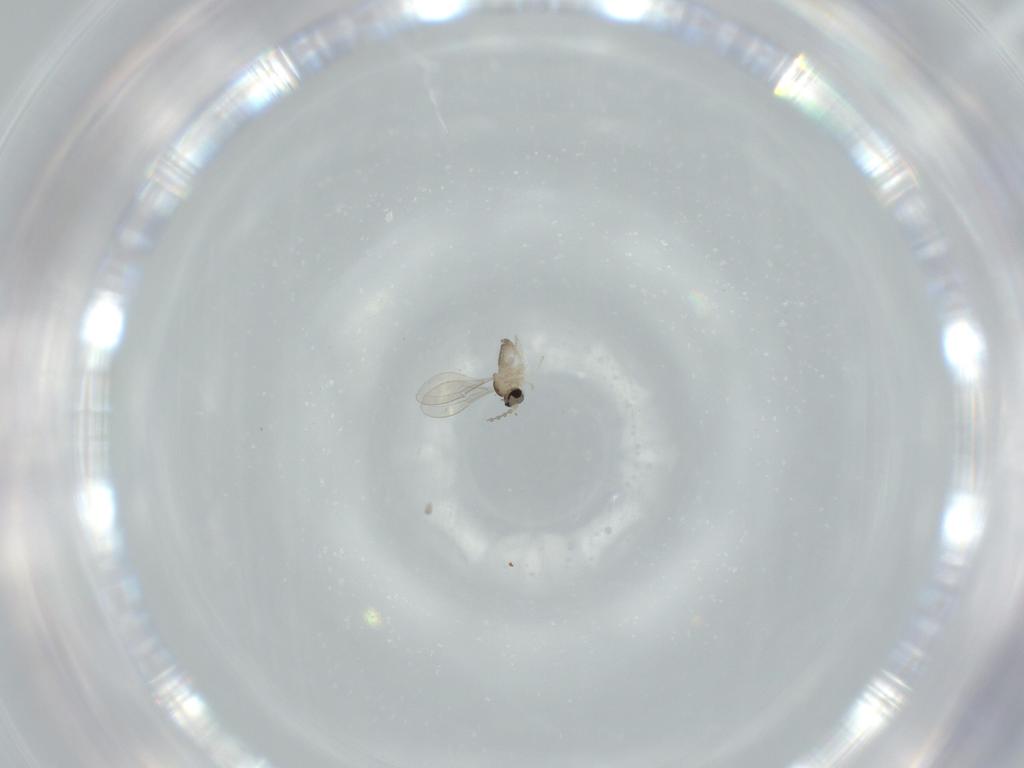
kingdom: Animalia
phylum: Arthropoda
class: Insecta
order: Diptera
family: Cecidomyiidae
